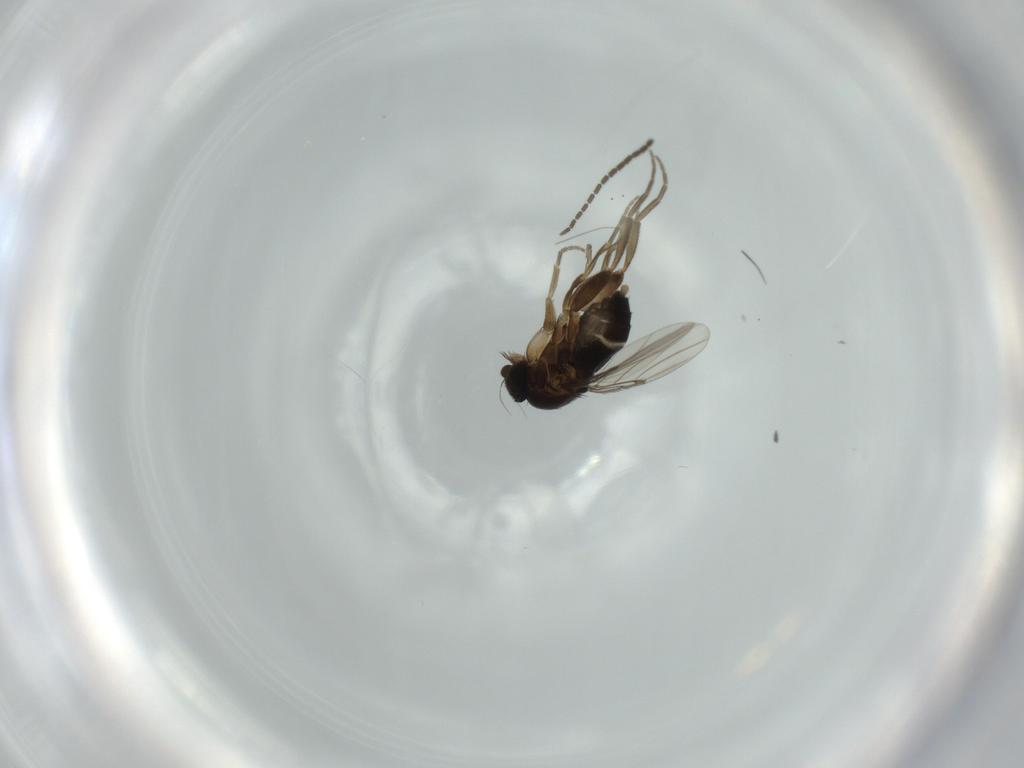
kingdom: Animalia
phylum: Arthropoda
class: Insecta
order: Diptera
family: Phoridae
